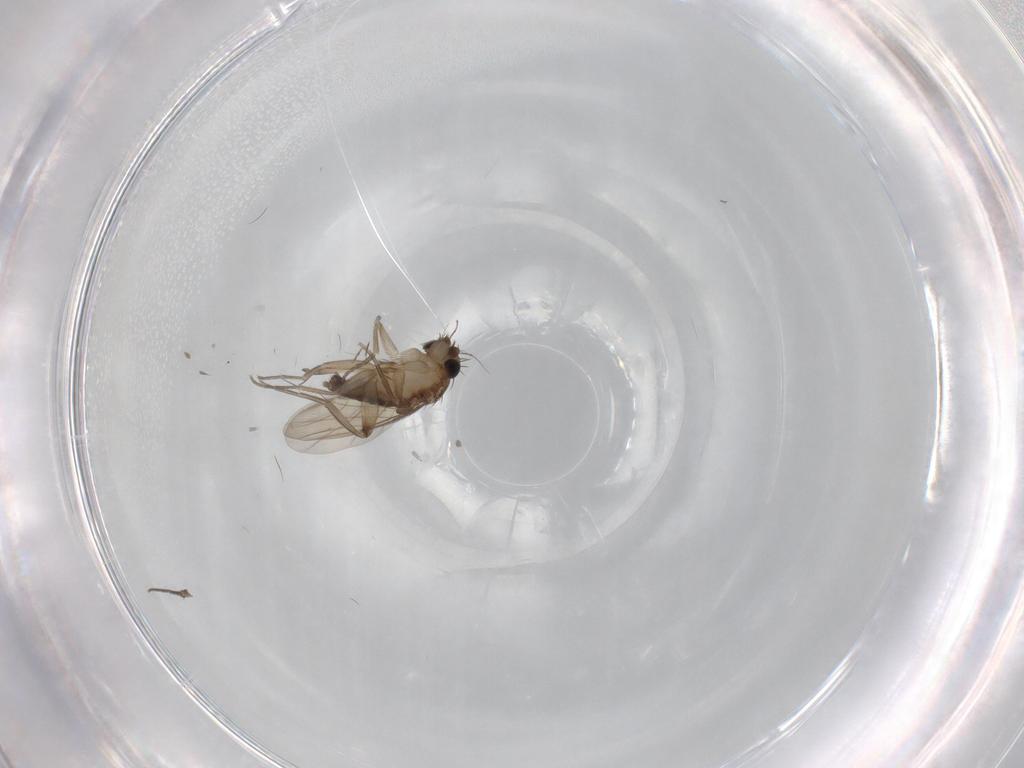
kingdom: Animalia
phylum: Arthropoda
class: Insecta
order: Diptera
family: Phoridae
